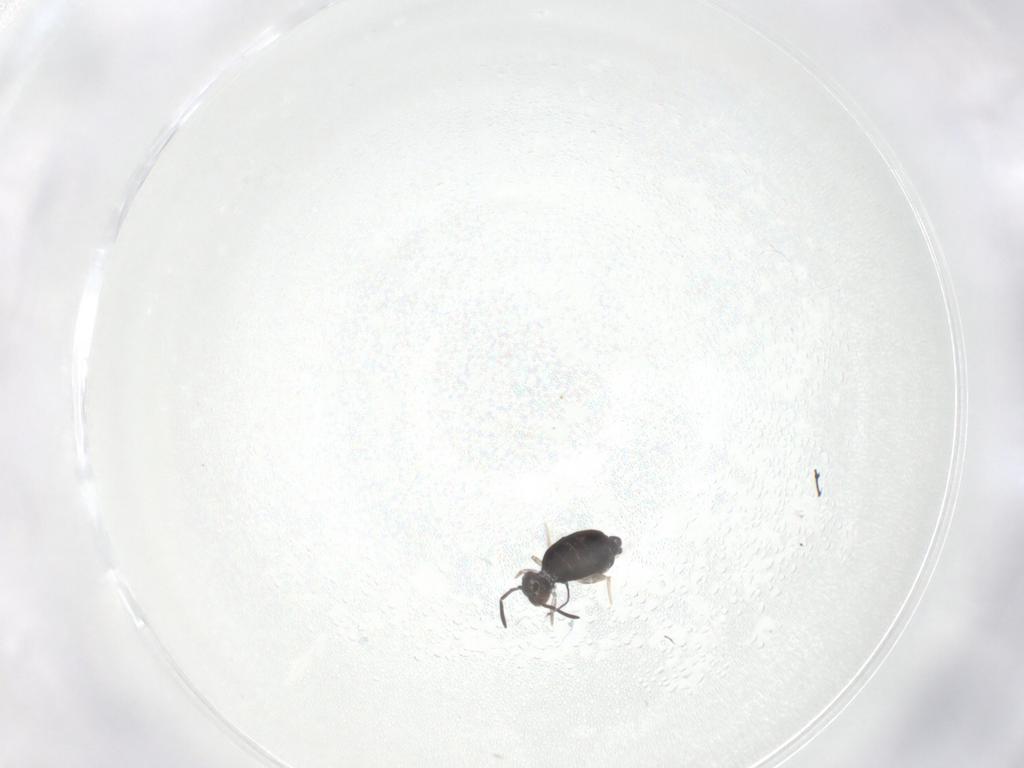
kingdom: Animalia
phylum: Arthropoda
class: Collembola
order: Symphypleona
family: Katiannidae
